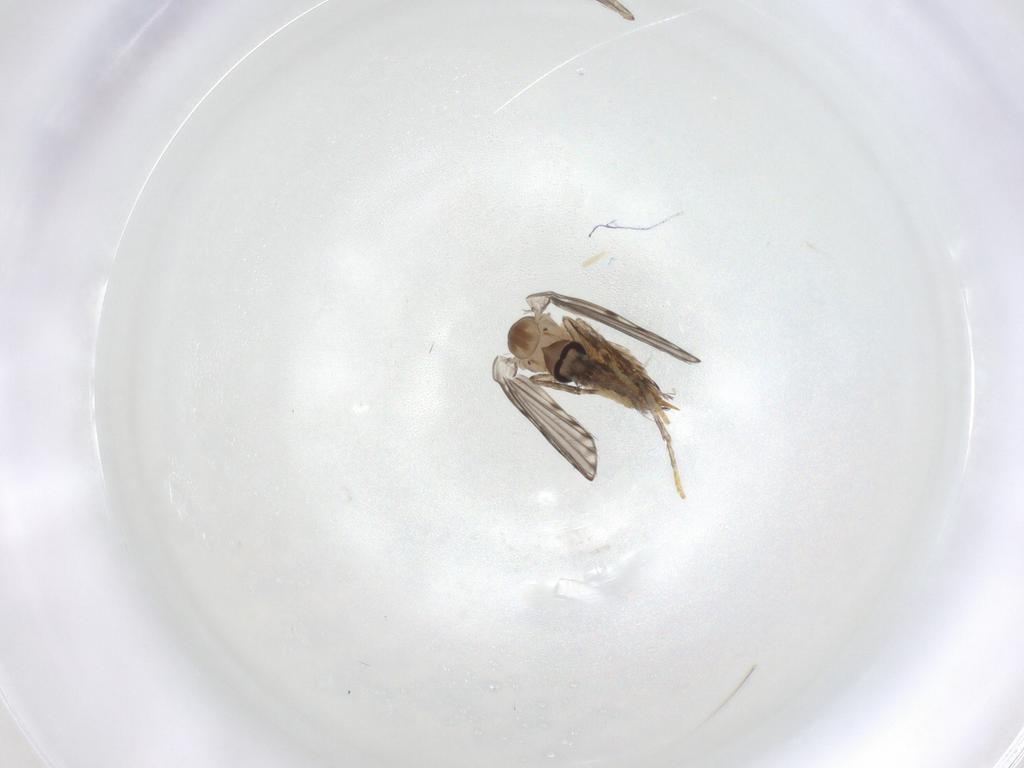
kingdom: Animalia
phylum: Arthropoda
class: Insecta
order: Diptera
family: Psychodidae
